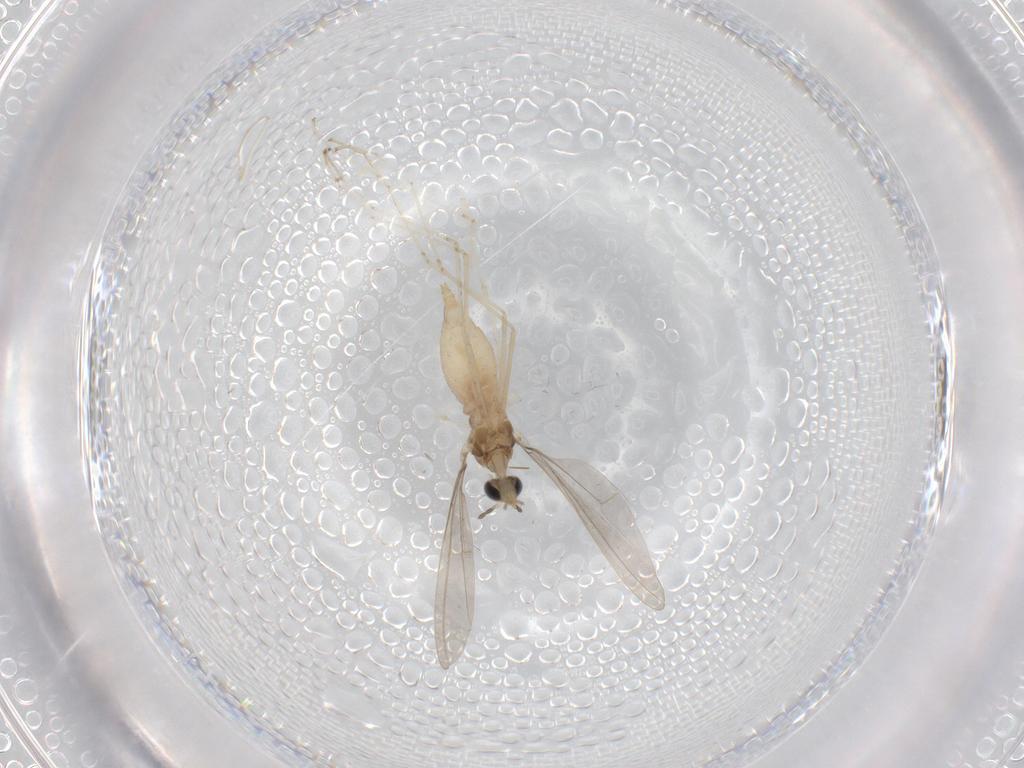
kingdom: Animalia
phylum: Arthropoda
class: Insecta
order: Diptera
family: Cecidomyiidae
